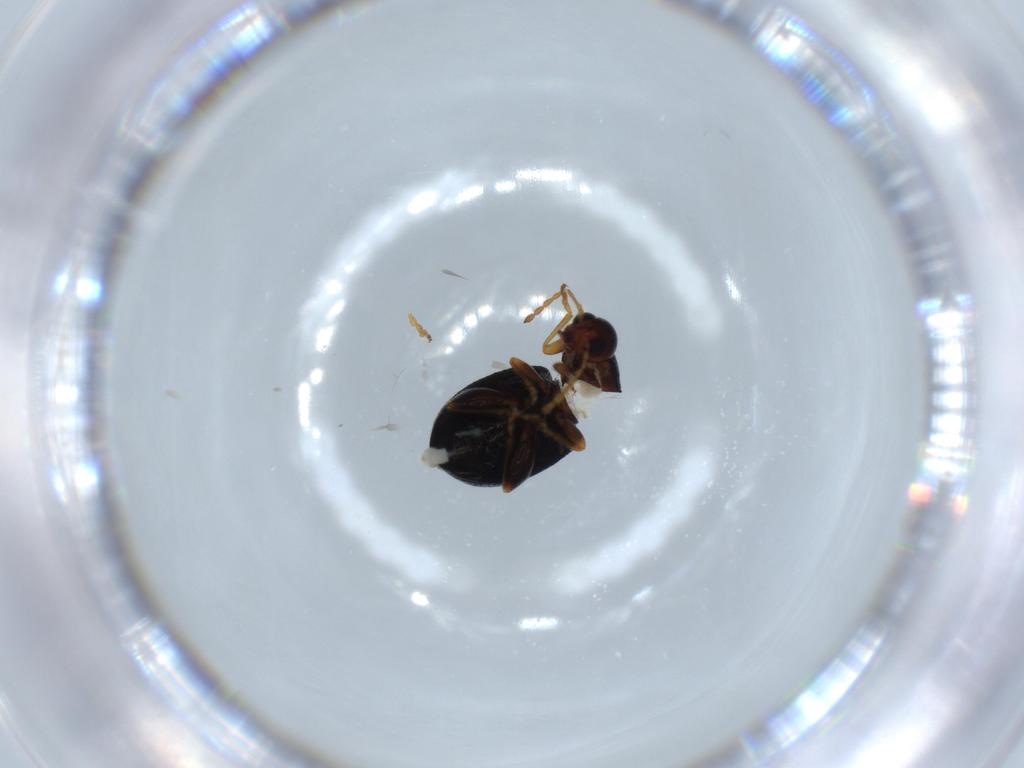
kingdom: Animalia
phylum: Arthropoda
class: Insecta
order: Coleoptera
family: Chrysomelidae
